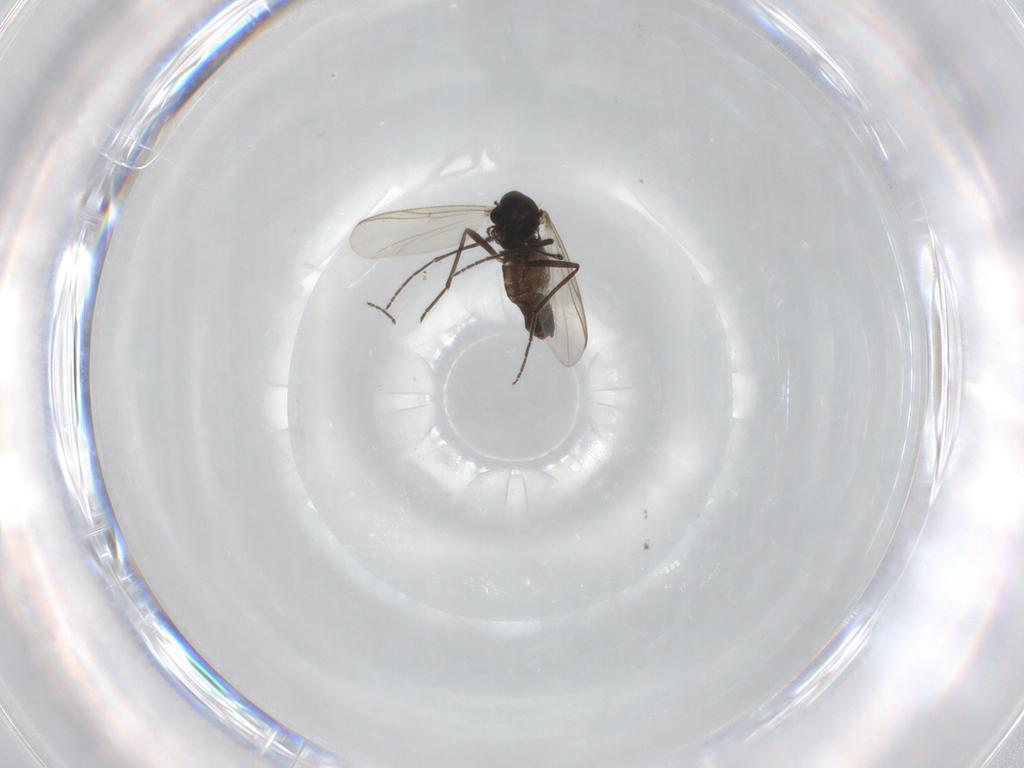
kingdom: Animalia
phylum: Arthropoda
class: Insecta
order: Diptera
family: Chironomidae
